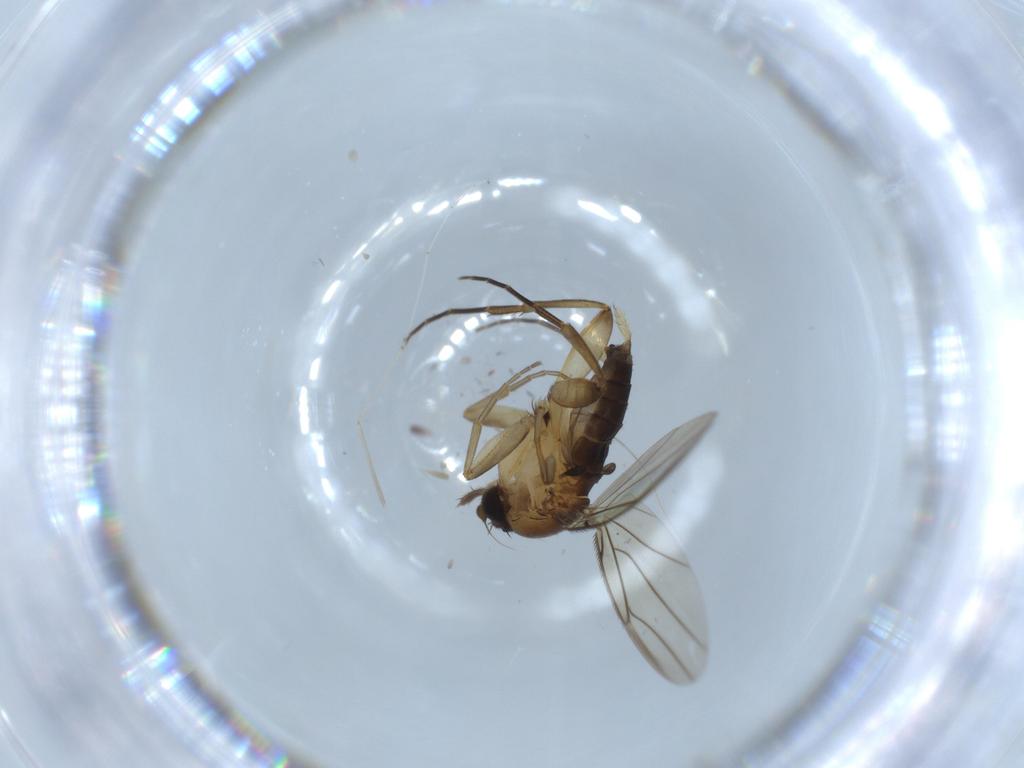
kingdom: Animalia
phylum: Arthropoda
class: Insecta
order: Diptera
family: Phoridae
